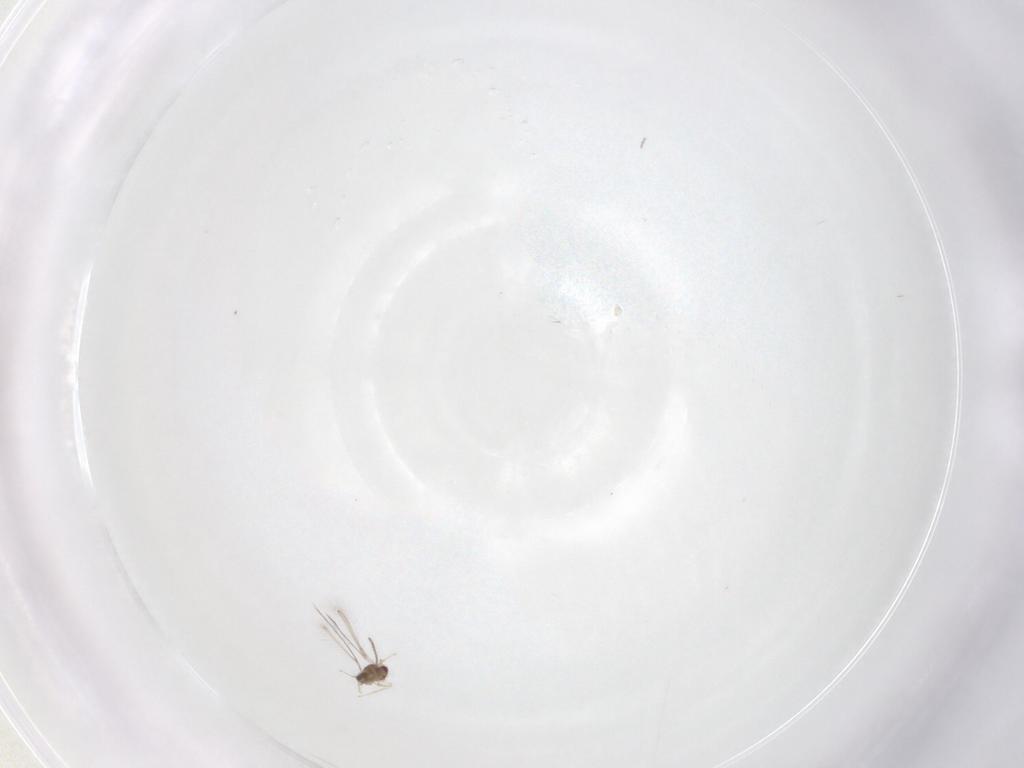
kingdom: Animalia
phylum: Arthropoda
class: Insecta
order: Hymenoptera
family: Mymaridae
